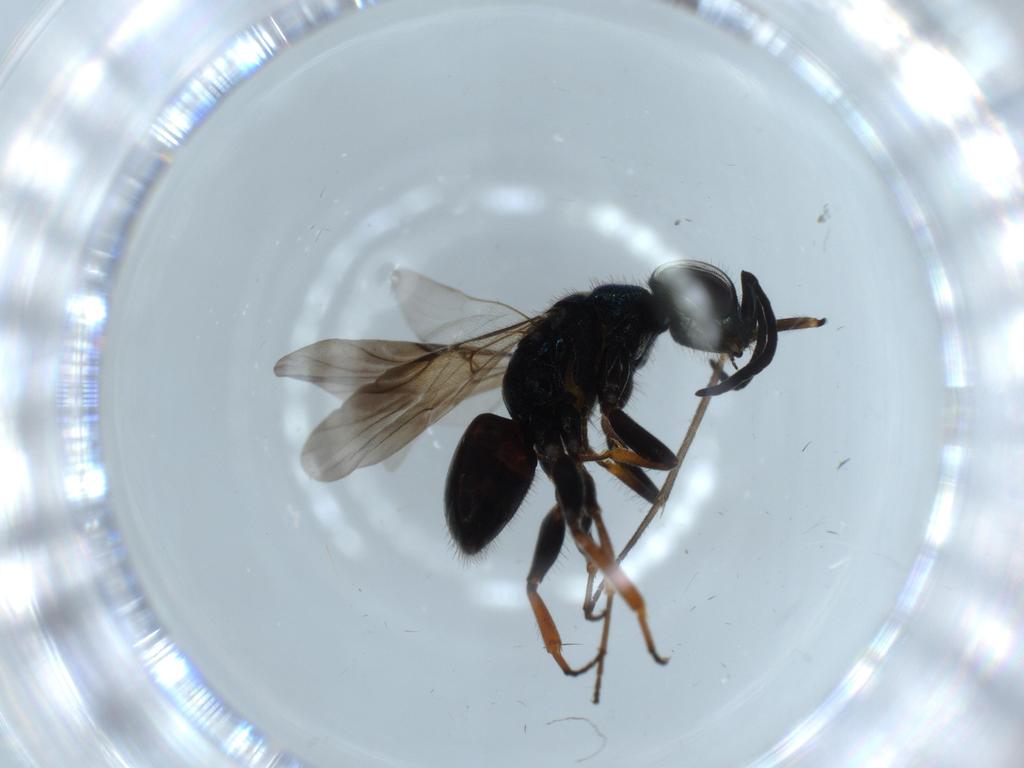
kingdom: Animalia
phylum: Arthropoda
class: Insecta
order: Hymenoptera
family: Chrysididae
